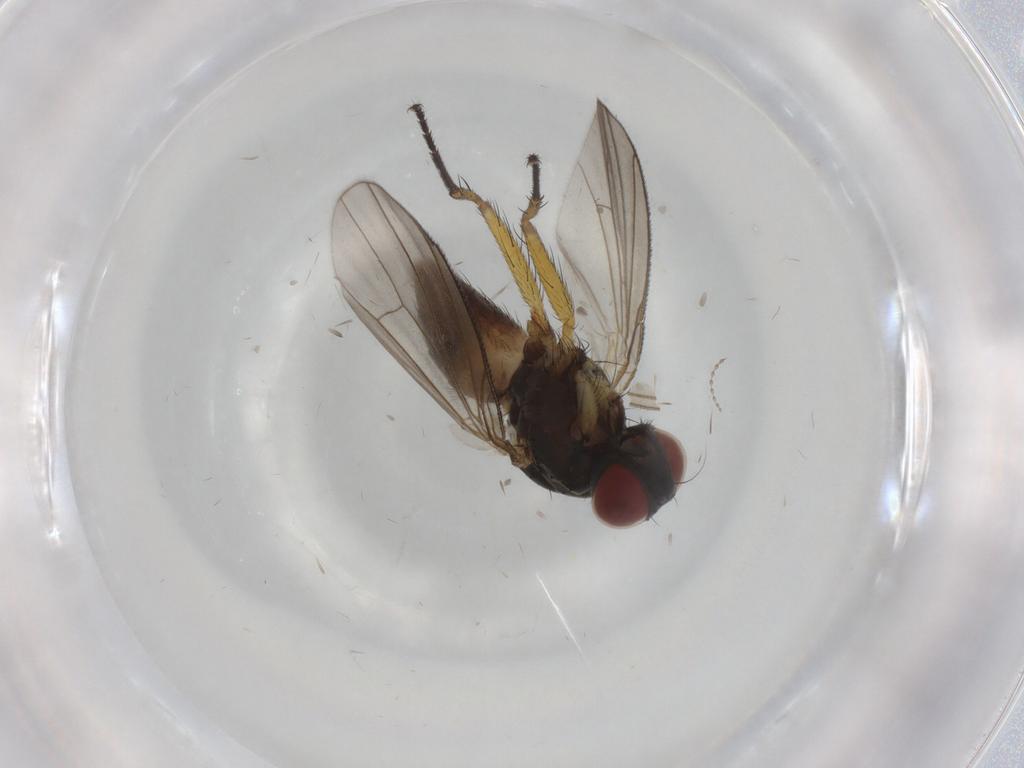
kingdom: Animalia
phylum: Arthropoda
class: Insecta
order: Diptera
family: Muscidae
